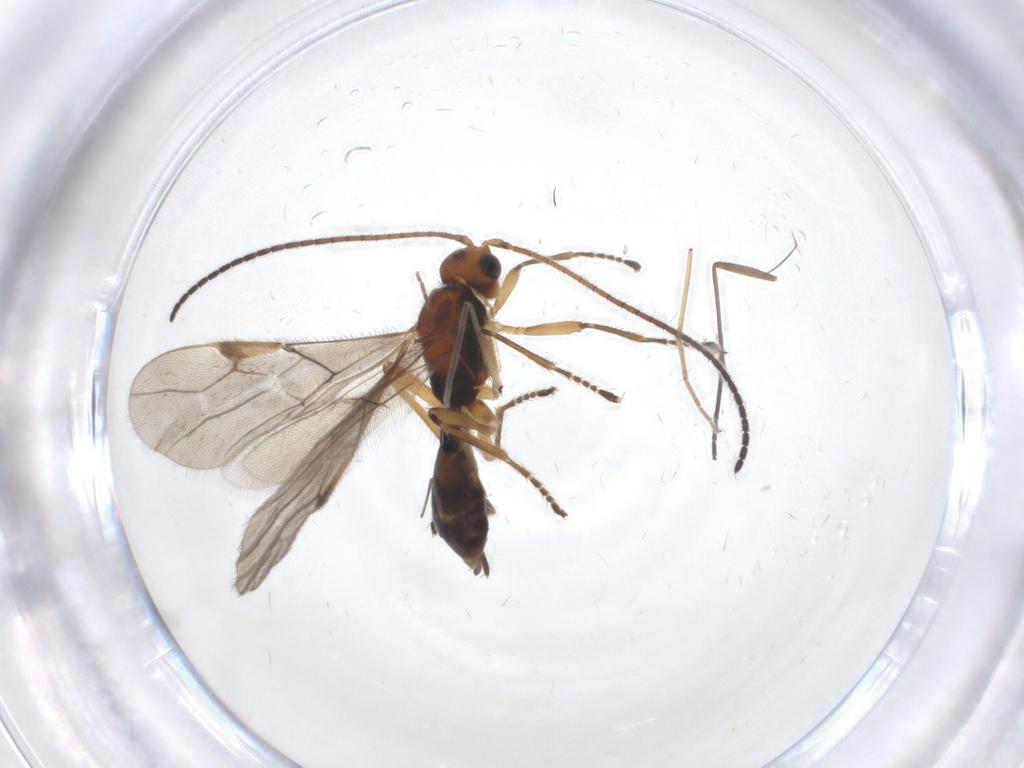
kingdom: Animalia
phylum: Arthropoda
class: Insecta
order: Hymenoptera
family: Braconidae
